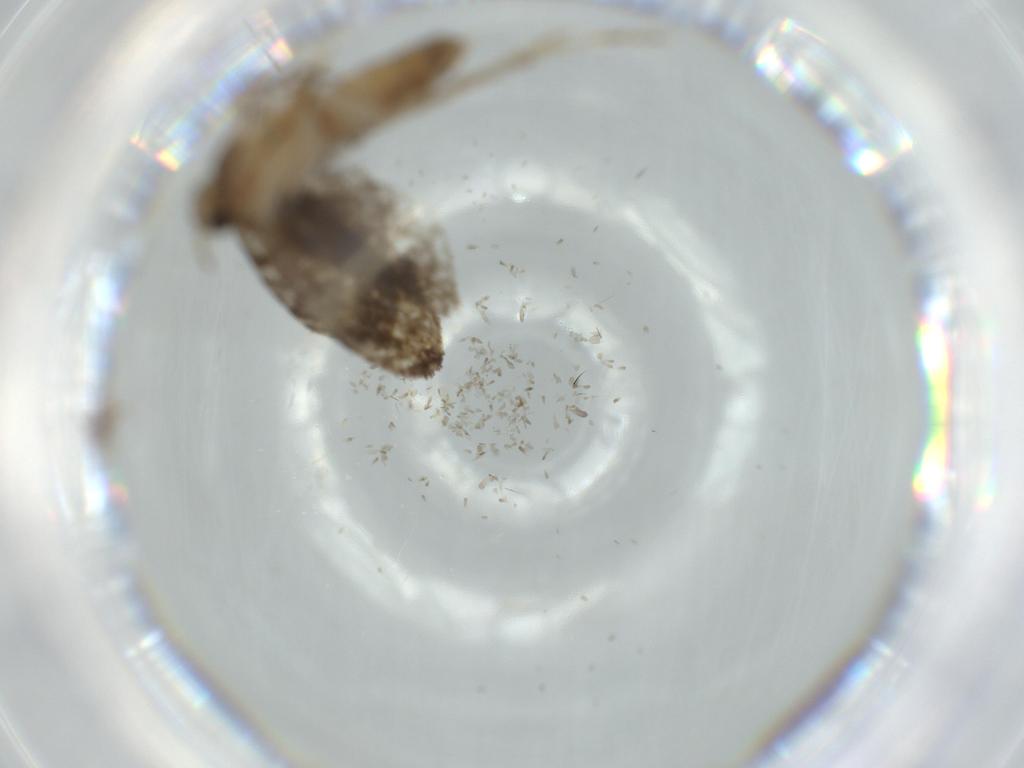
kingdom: Animalia
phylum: Arthropoda
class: Insecta
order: Lepidoptera
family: Tineidae
